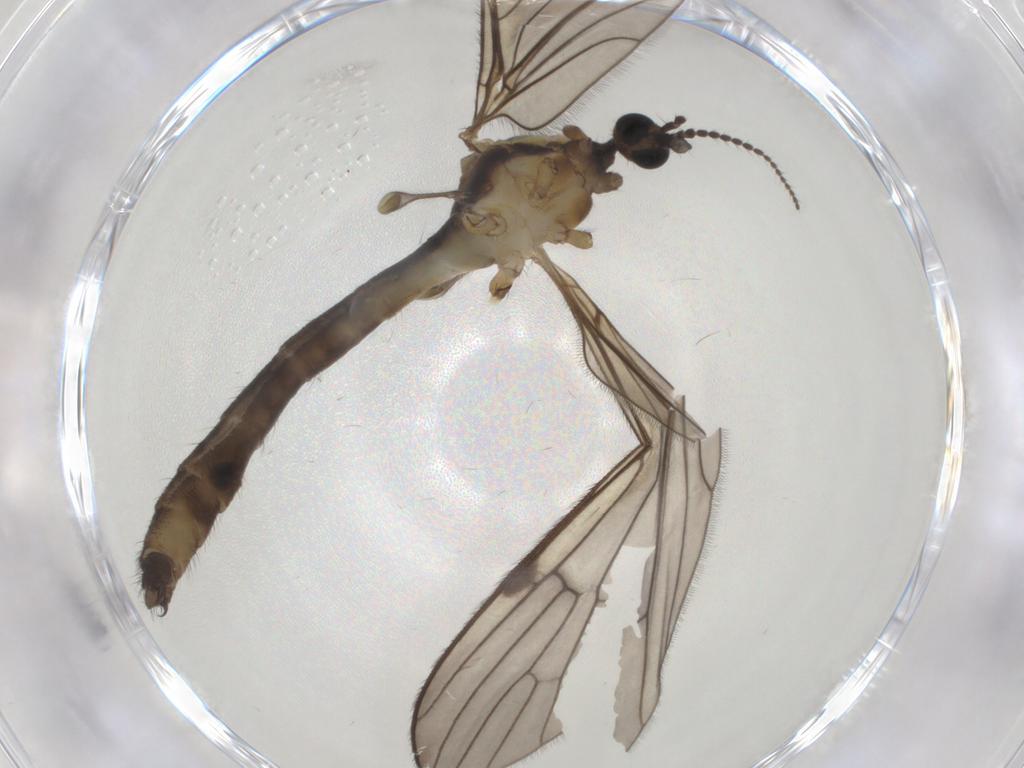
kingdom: Animalia
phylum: Arthropoda
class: Insecta
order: Diptera
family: Limoniidae
